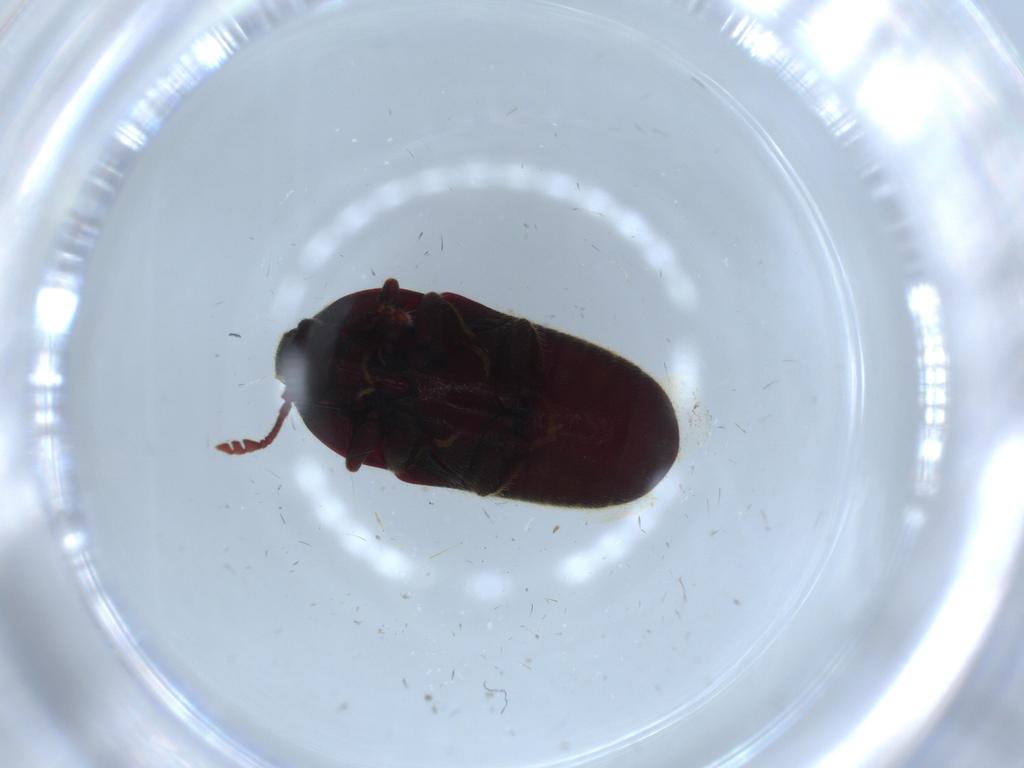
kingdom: Animalia
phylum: Arthropoda
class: Insecta
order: Coleoptera
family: Throscidae
